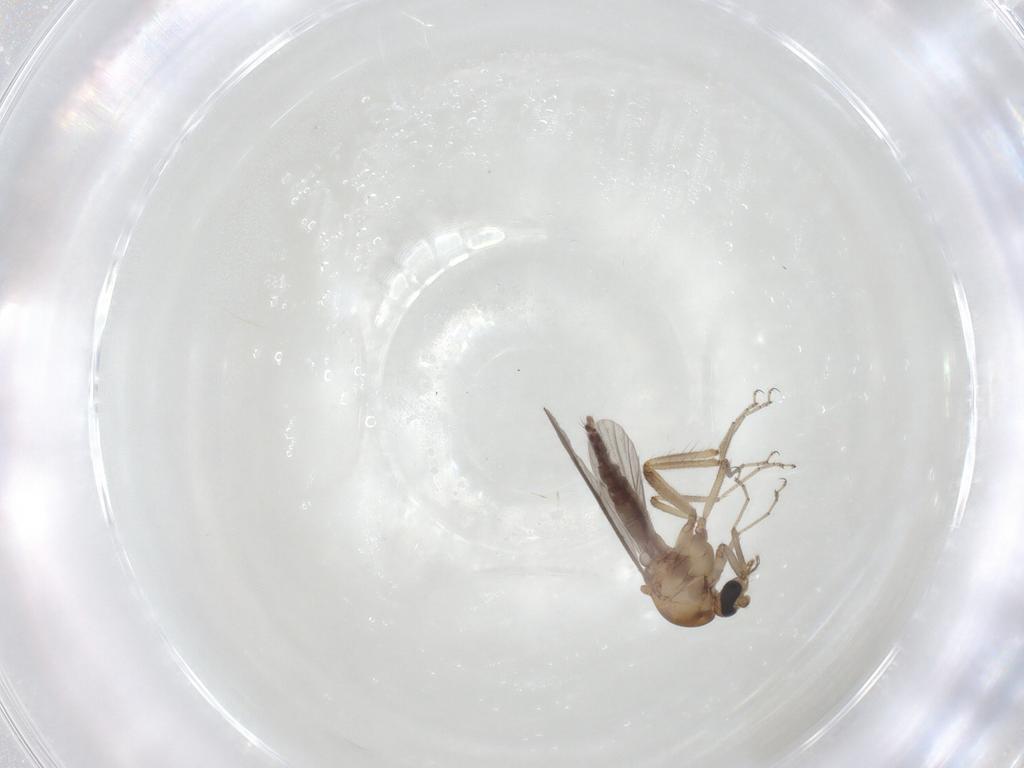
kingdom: Animalia
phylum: Arthropoda
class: Insecta
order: Diptera
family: Ceratopogonidae
